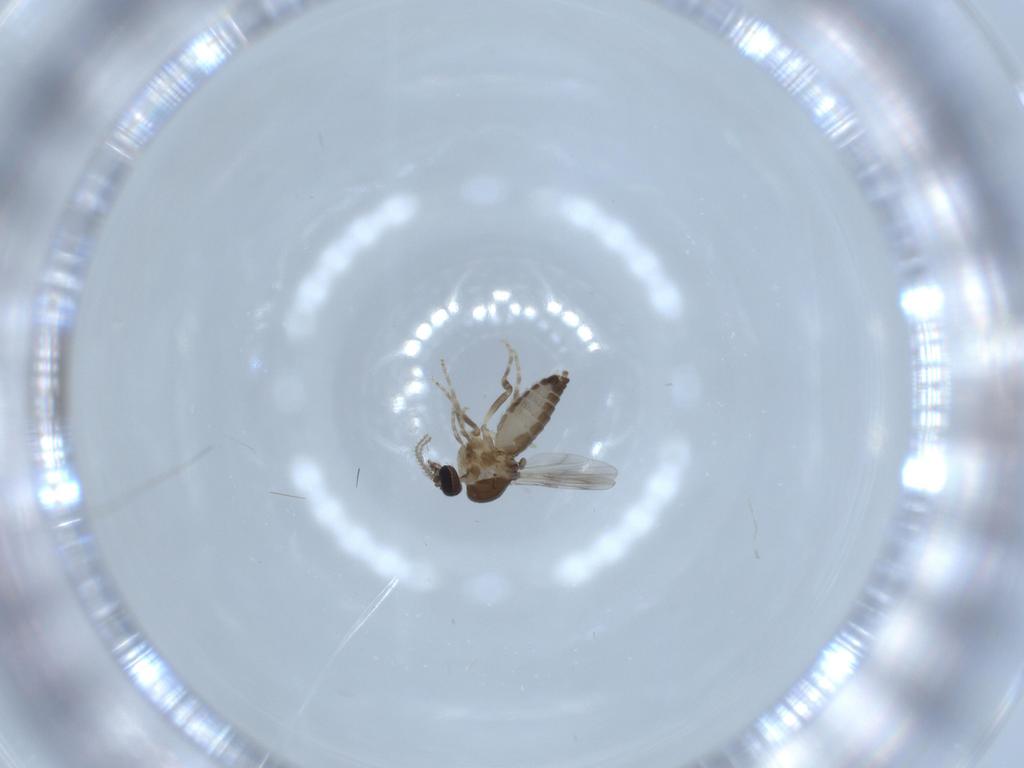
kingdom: Animalia
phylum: Arthropoda
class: Insecta
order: Diptera
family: Ceratopogonidae
